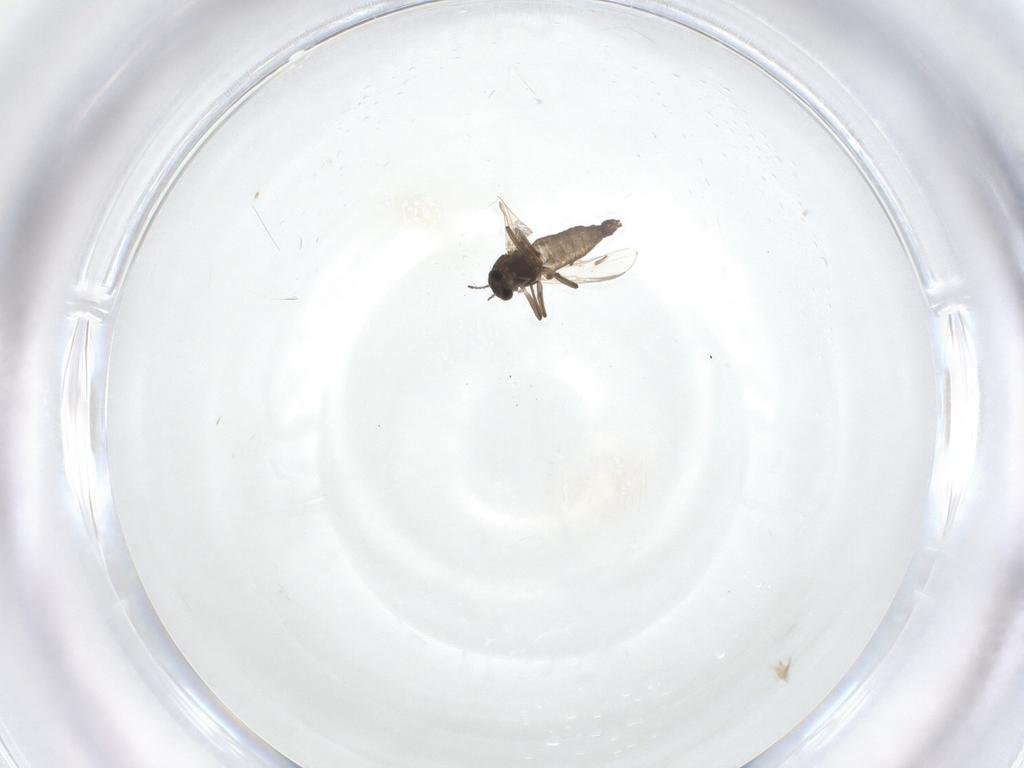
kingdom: Animalia
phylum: Arthropoda
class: Insecta
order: Diptera
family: Chironomidae
